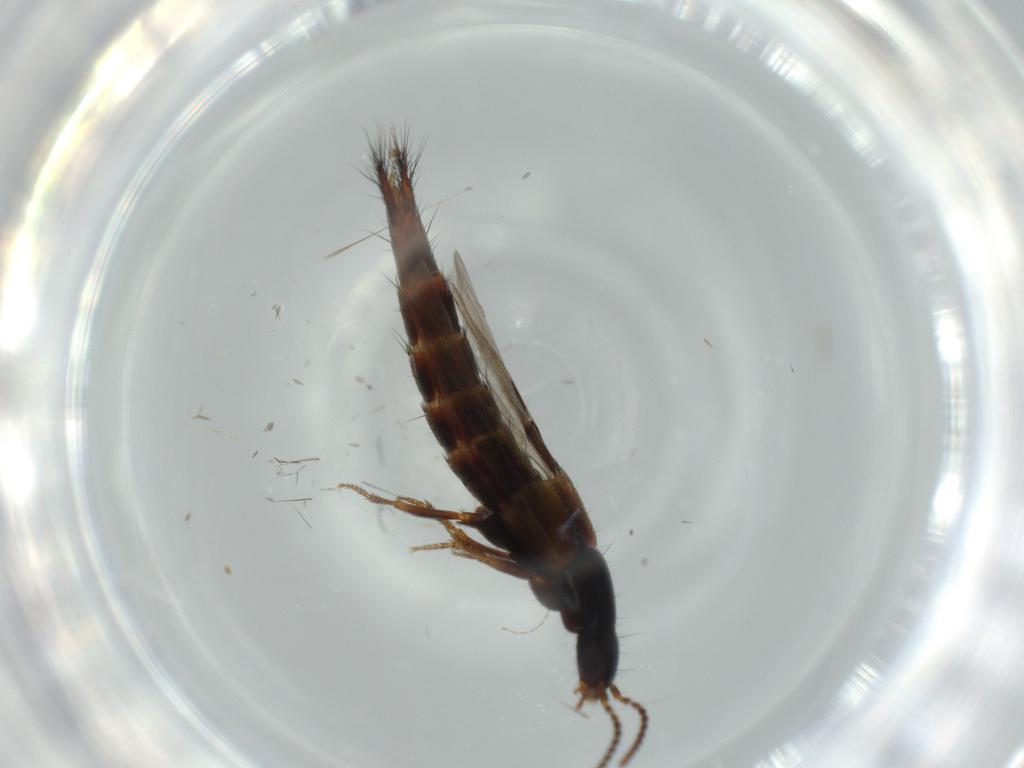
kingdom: Animalia
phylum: Arthropoda
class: Insecta
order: Coleoptera
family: Staphylinidae
